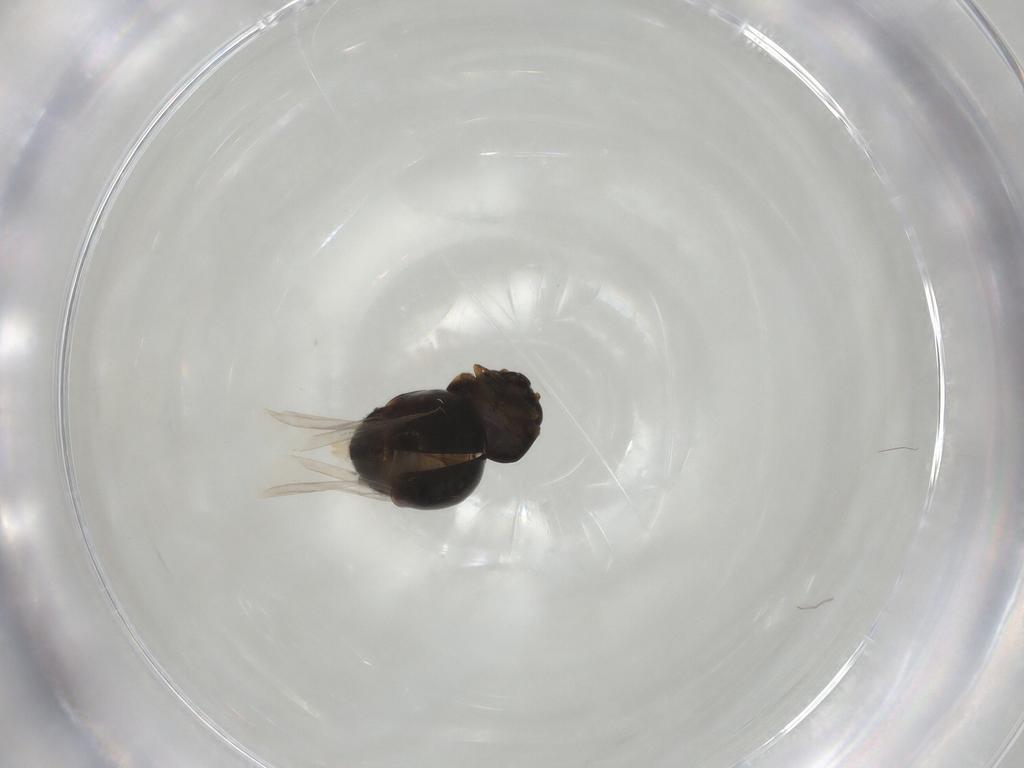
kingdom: Animalia
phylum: Arthropoda
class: Insecta
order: Coleoptera
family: Cybocephalidae
